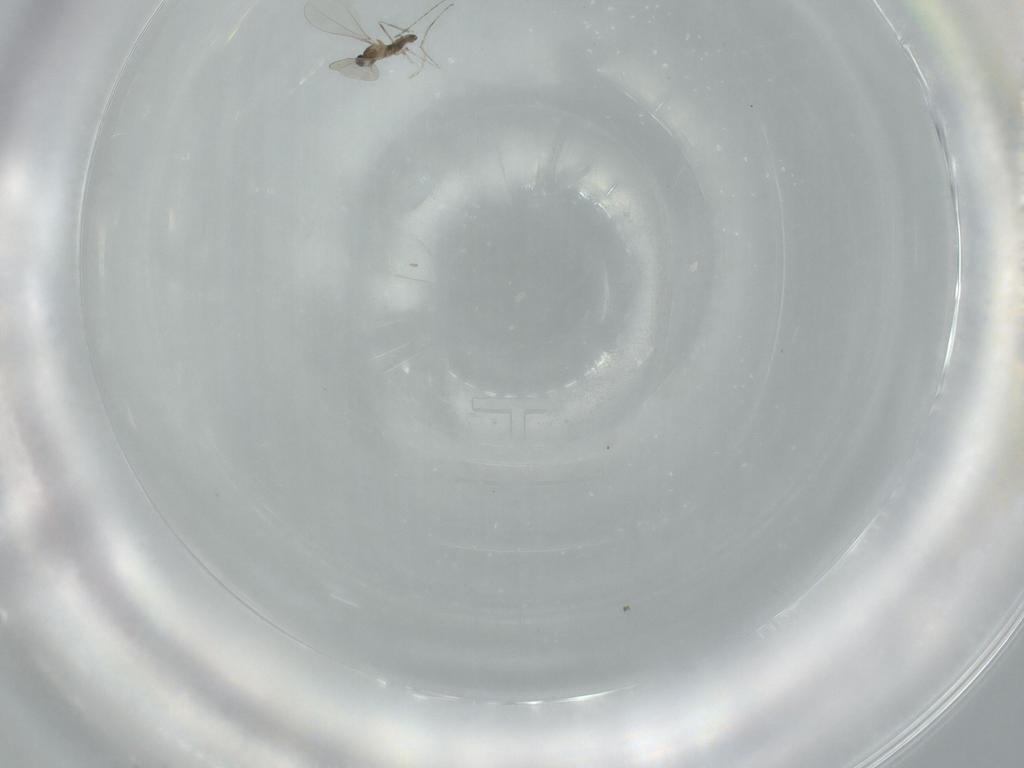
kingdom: Animalia
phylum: Arthropoda
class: Insecta
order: Diptera
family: Cecidomyiidae
